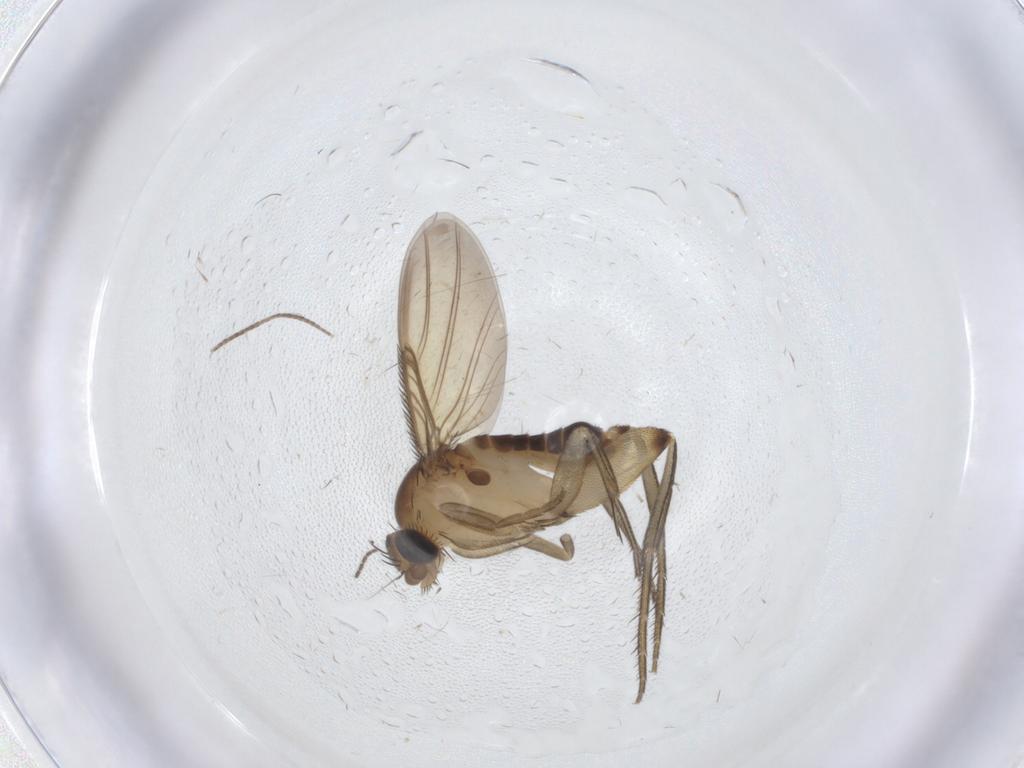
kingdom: Animalia
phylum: Arthropoda
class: Insecta
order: Diptera
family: Phoridae
